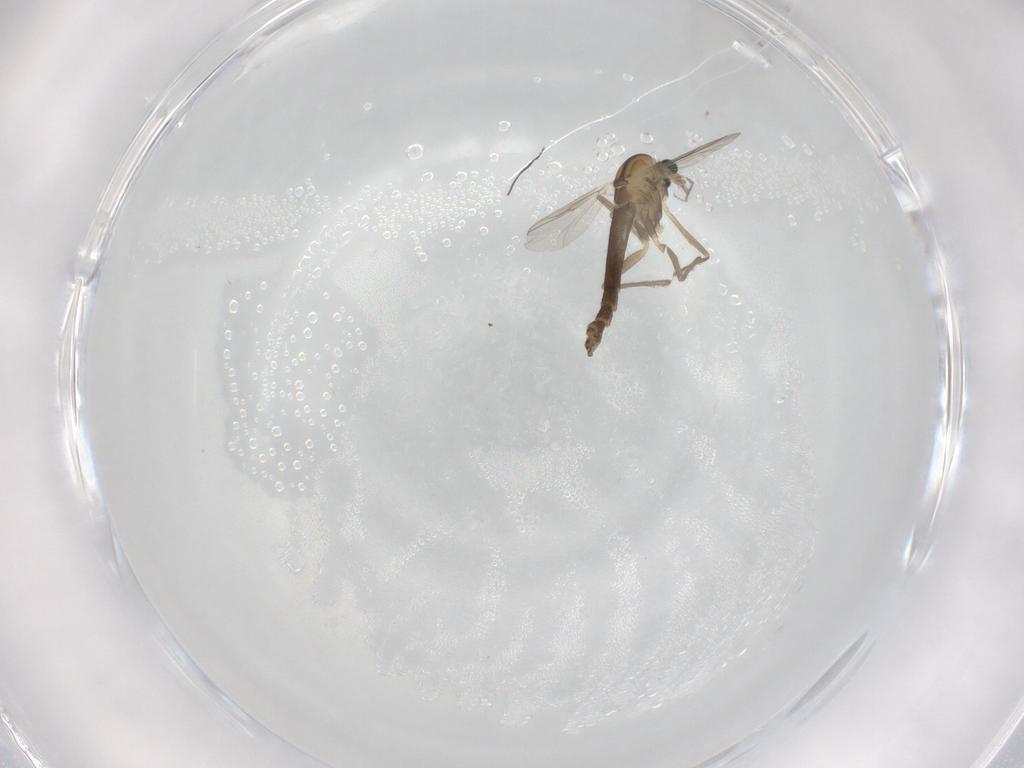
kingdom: Animalia
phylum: Arthropoda
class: Insecta
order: Diptera
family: Chironomidae
